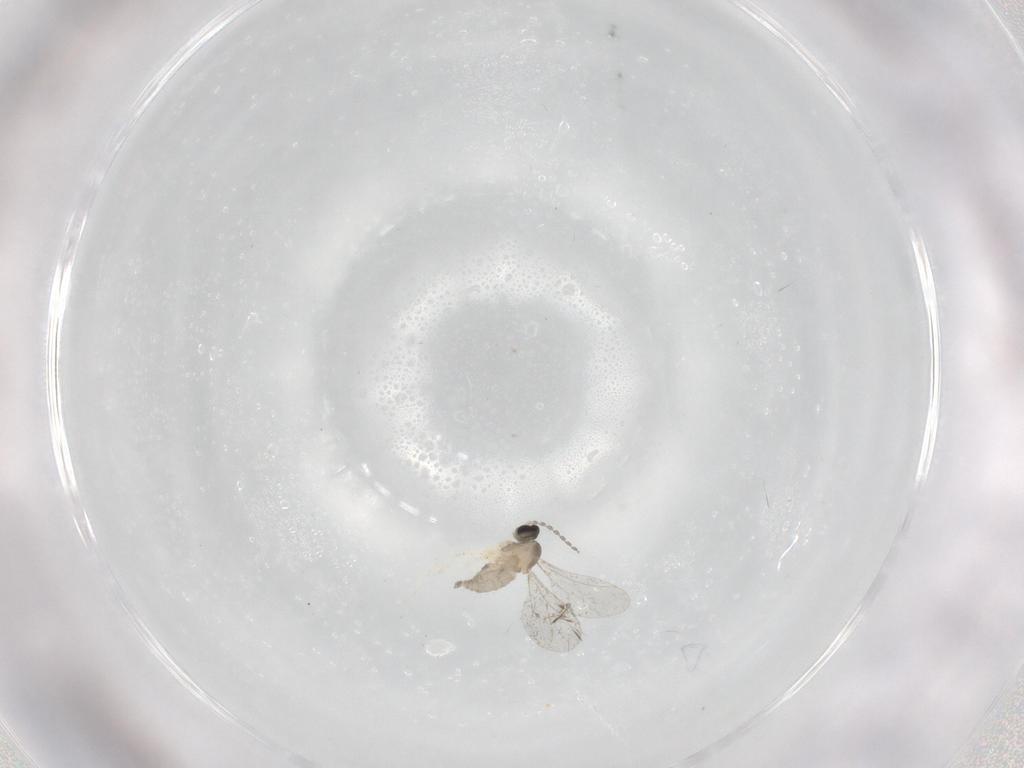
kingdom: Animalia
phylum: Arthropoda
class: Insecta
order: Diptera
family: Cecidomyiidae
